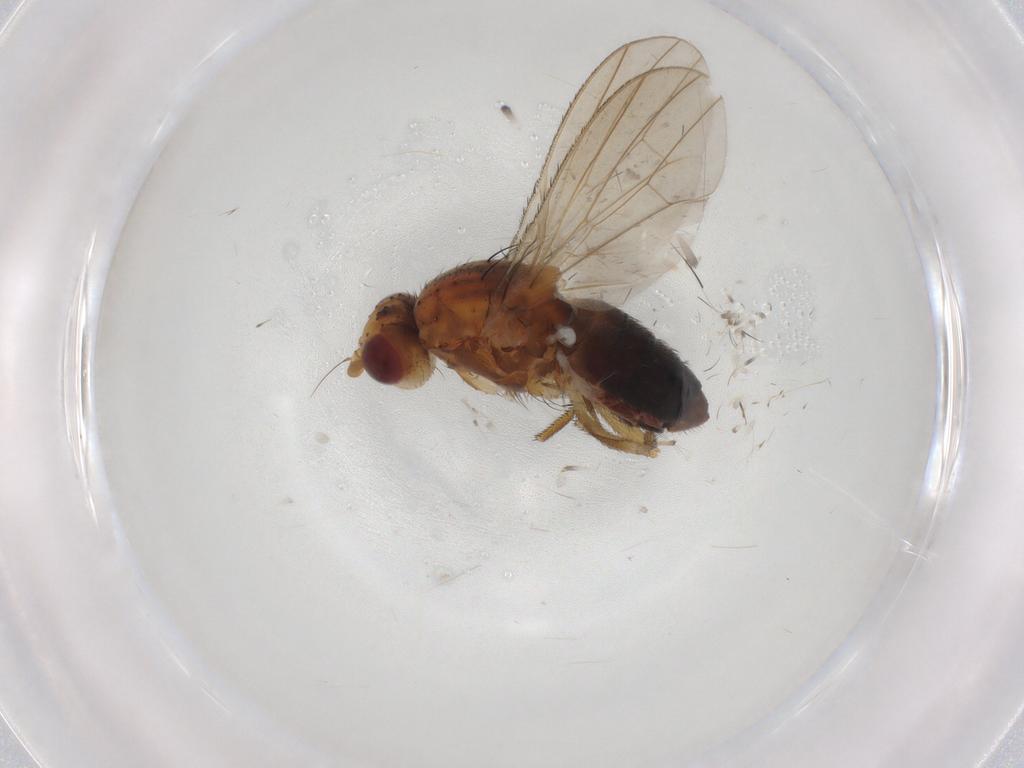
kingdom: Animalia
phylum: Arthropoda
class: Insecta
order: Diptera
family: Heleomyzidae
